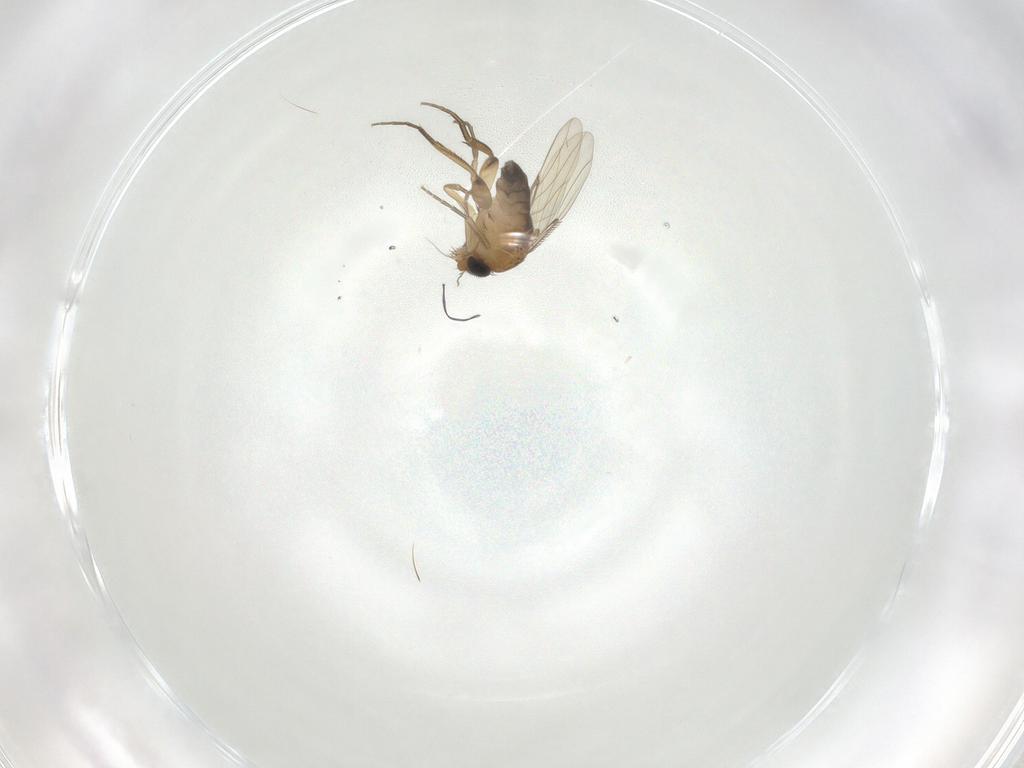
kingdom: Animalia
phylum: Arthropoda
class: Insecta
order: Diptera
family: Phoridae
